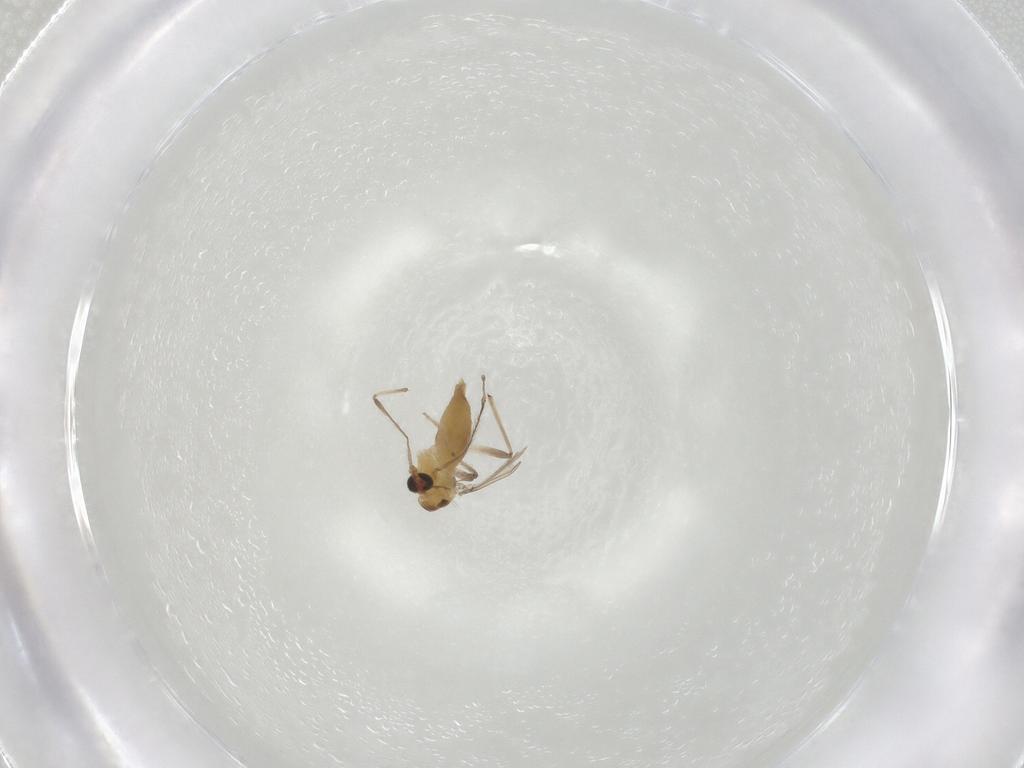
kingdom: Animalia
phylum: Arthropoda
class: Insecta
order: Diptera
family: Chironomidae
